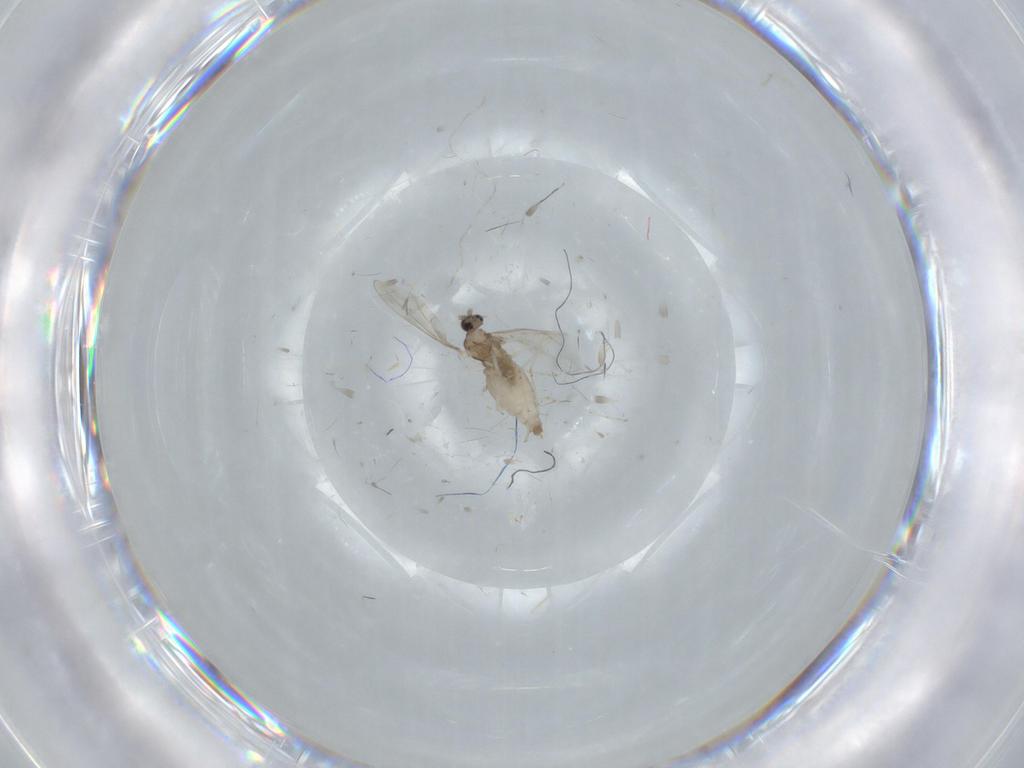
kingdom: Animalia
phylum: Arthropoda
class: Insecta
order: Diptera
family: Cecidomyiidae
